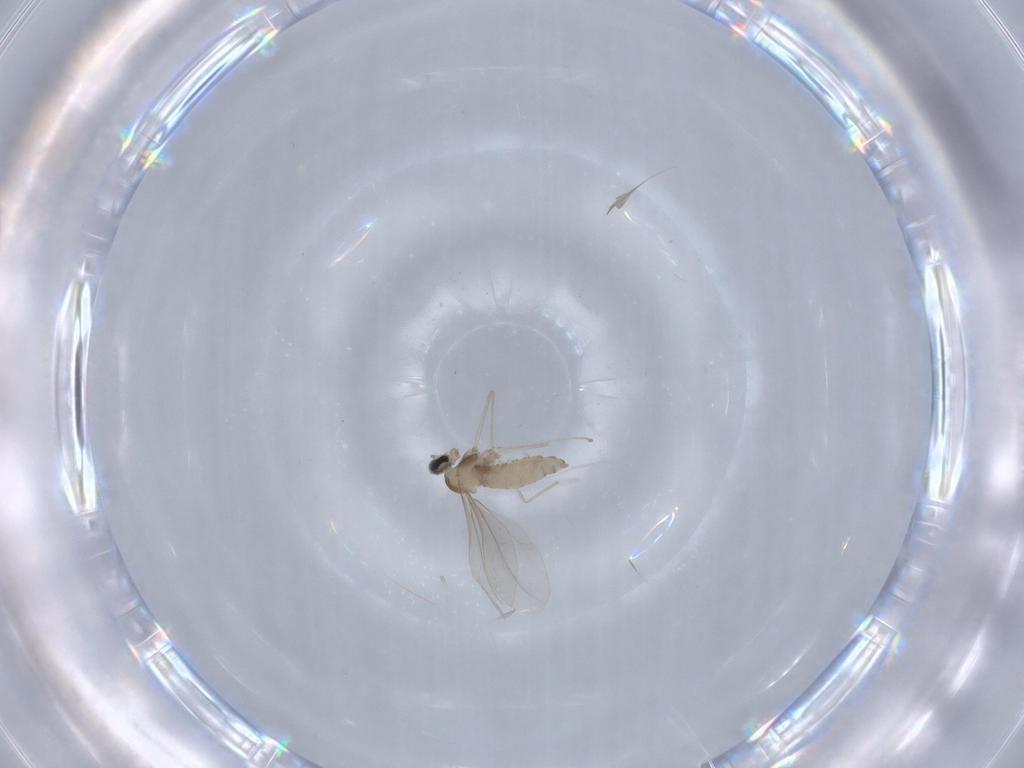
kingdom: Animalia
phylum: Arthropoda
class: Insecta
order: Diptera
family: Cecidomyiidae
